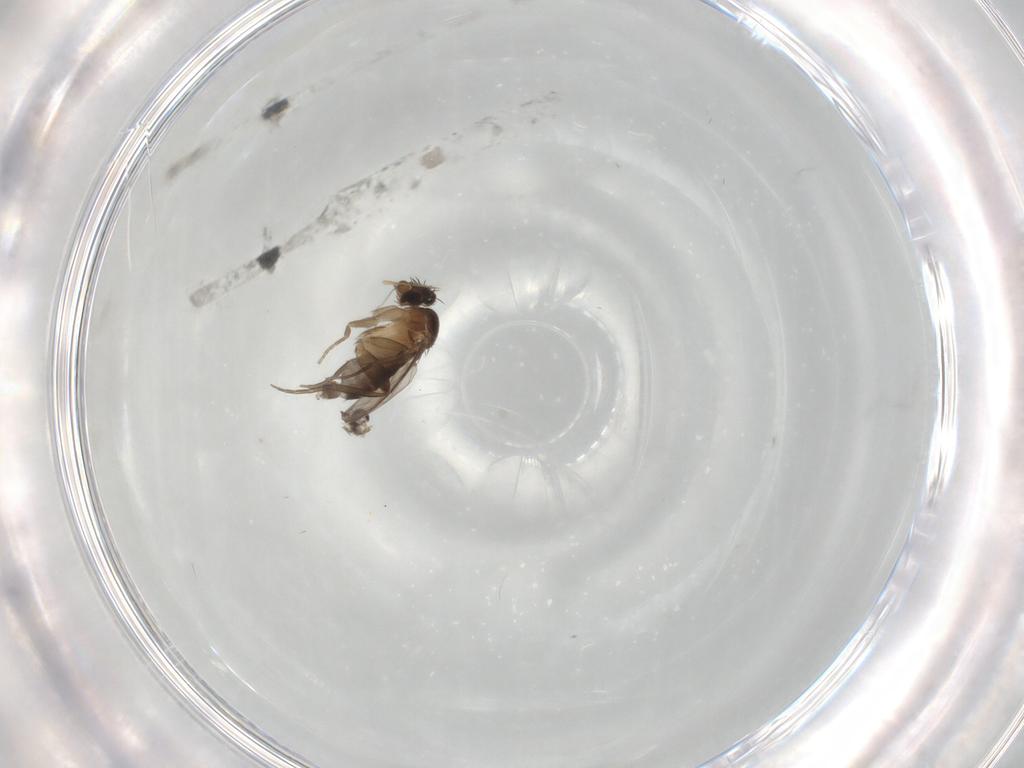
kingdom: Animalia
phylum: Arthropoda
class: Insecta
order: Diptera
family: Phoridae
